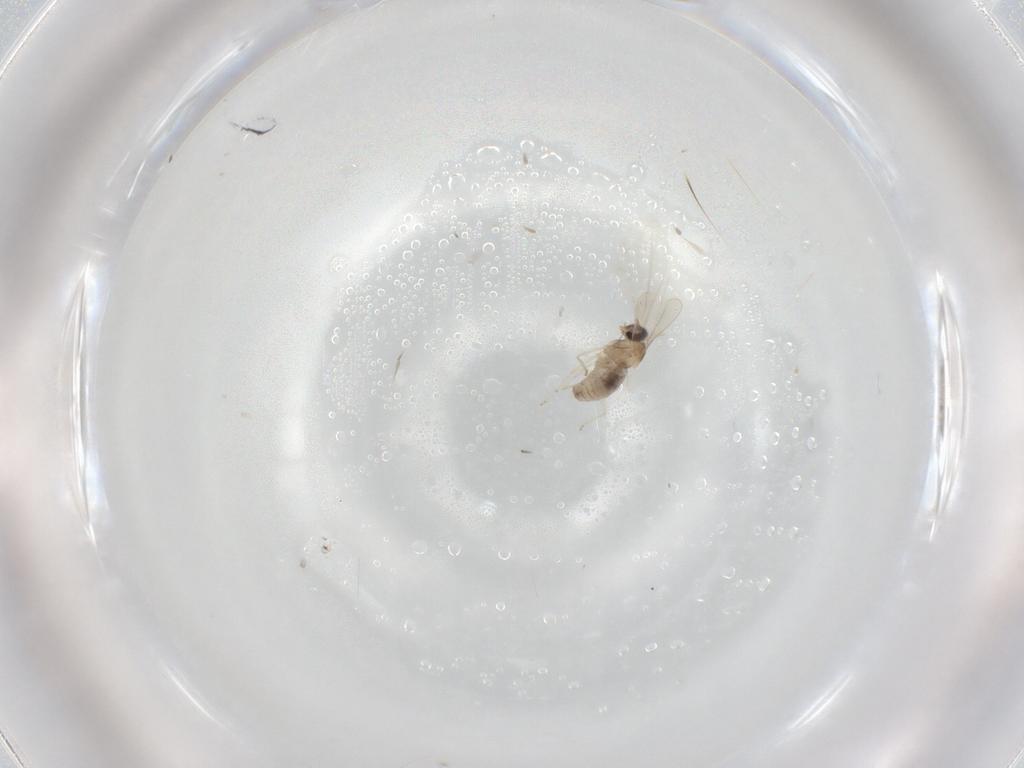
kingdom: Animalia
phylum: Arthropoda
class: Insecta
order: Diptera
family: Cecidomyiidae
